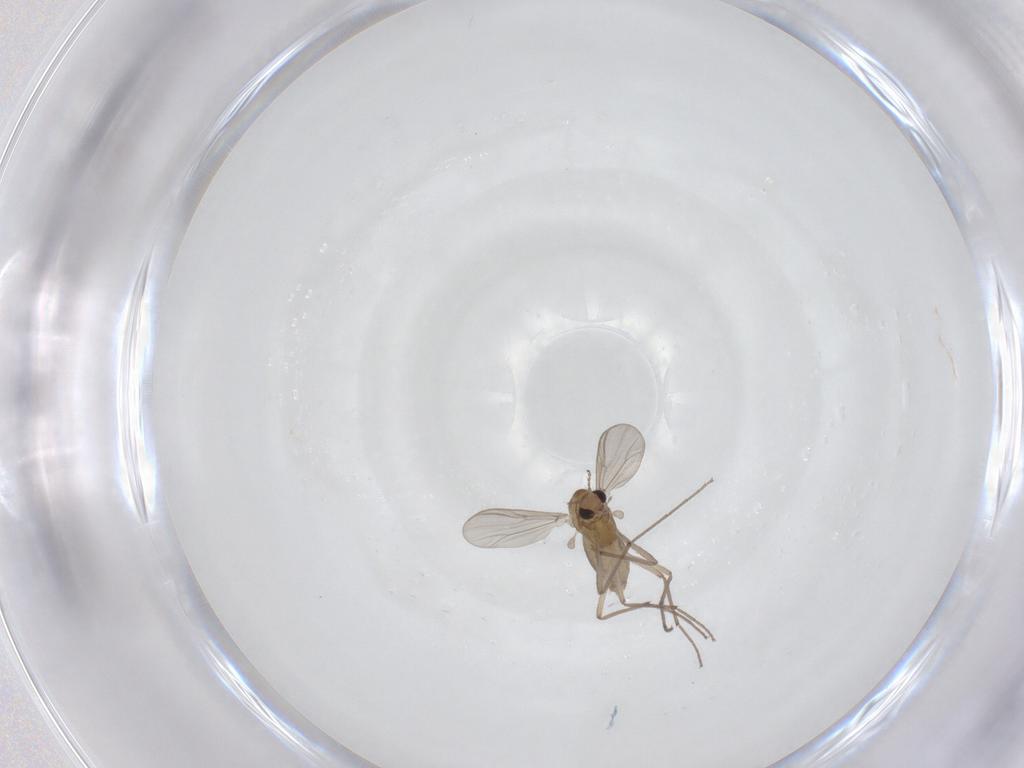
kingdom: Animalia
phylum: Arthropoda
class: Insecta
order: Diptera
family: Chironomidae
